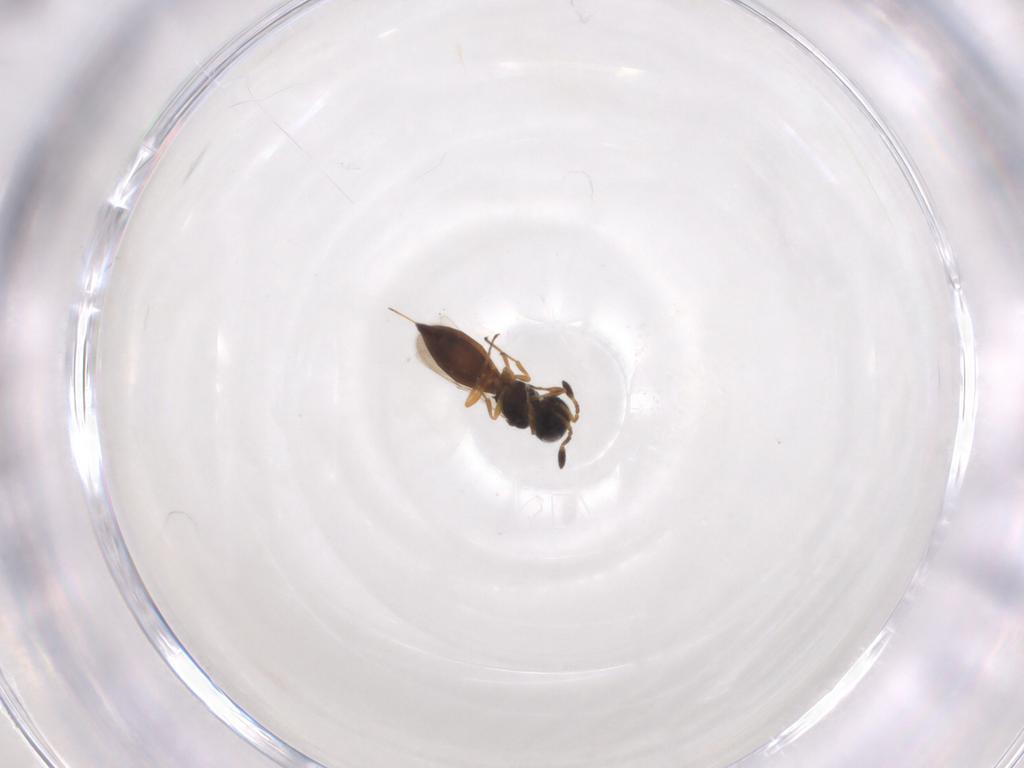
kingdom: Animalia
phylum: Arthropoda
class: Insecta
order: Hymenoptera
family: Scelionidae
